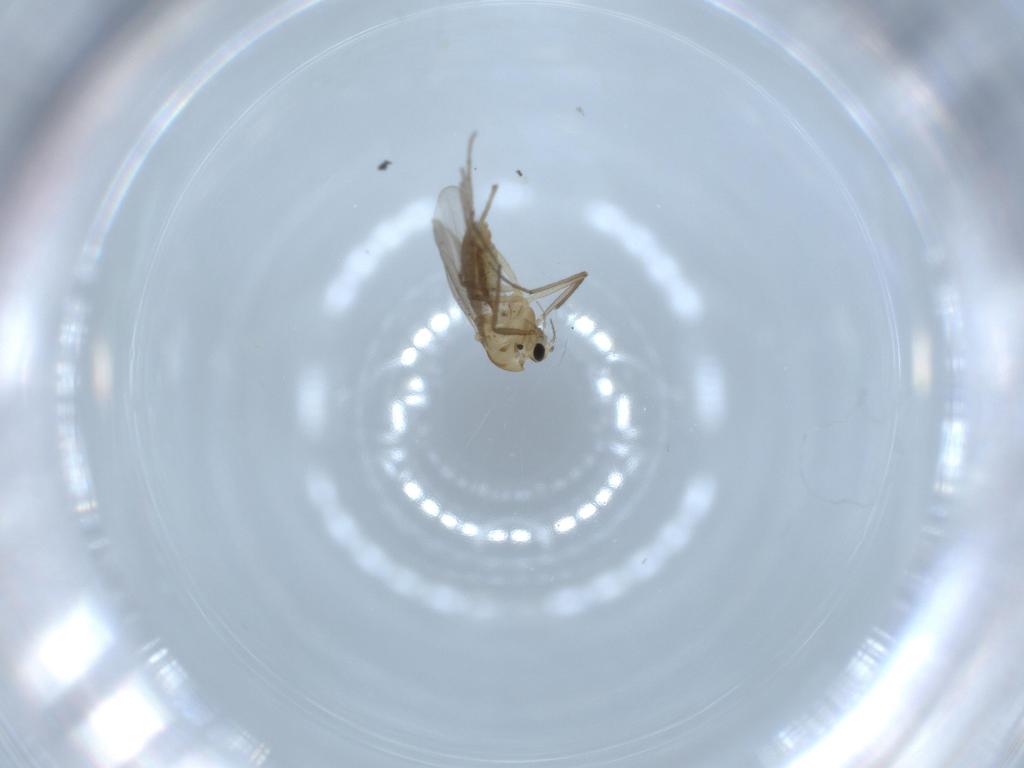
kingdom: Animalia
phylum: Arthropoda
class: Insecta
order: Diptera
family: Chironomidae
